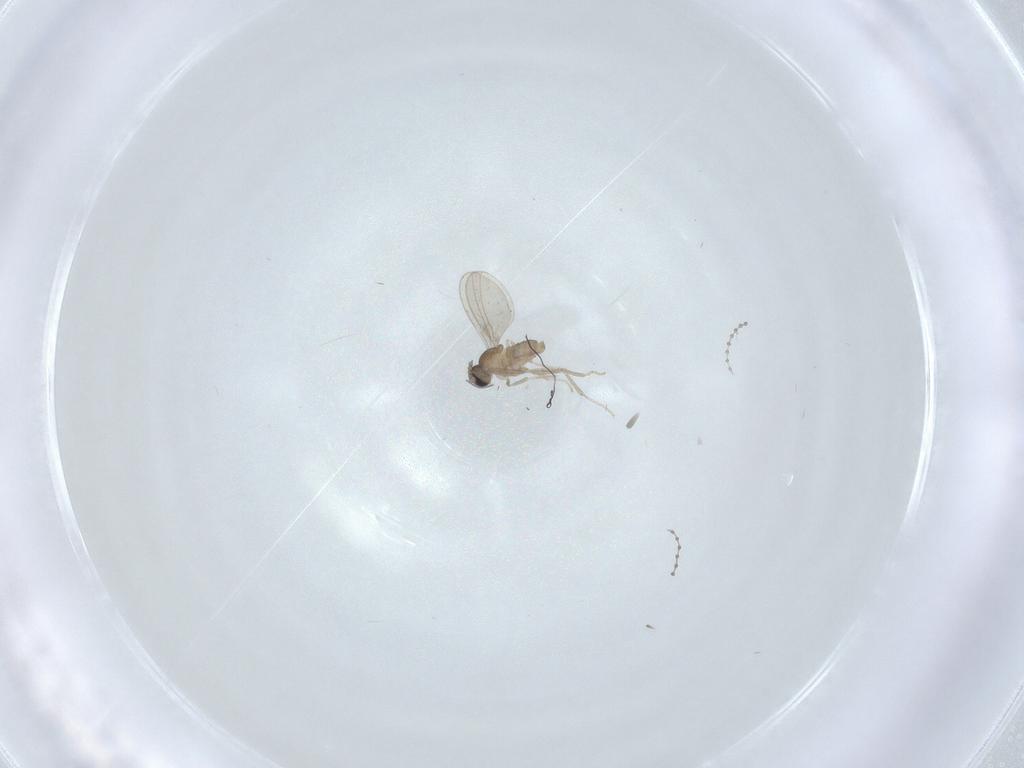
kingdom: Animalia
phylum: Arthropoda
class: Insecta
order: Diptera
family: Cecidomyiidae
